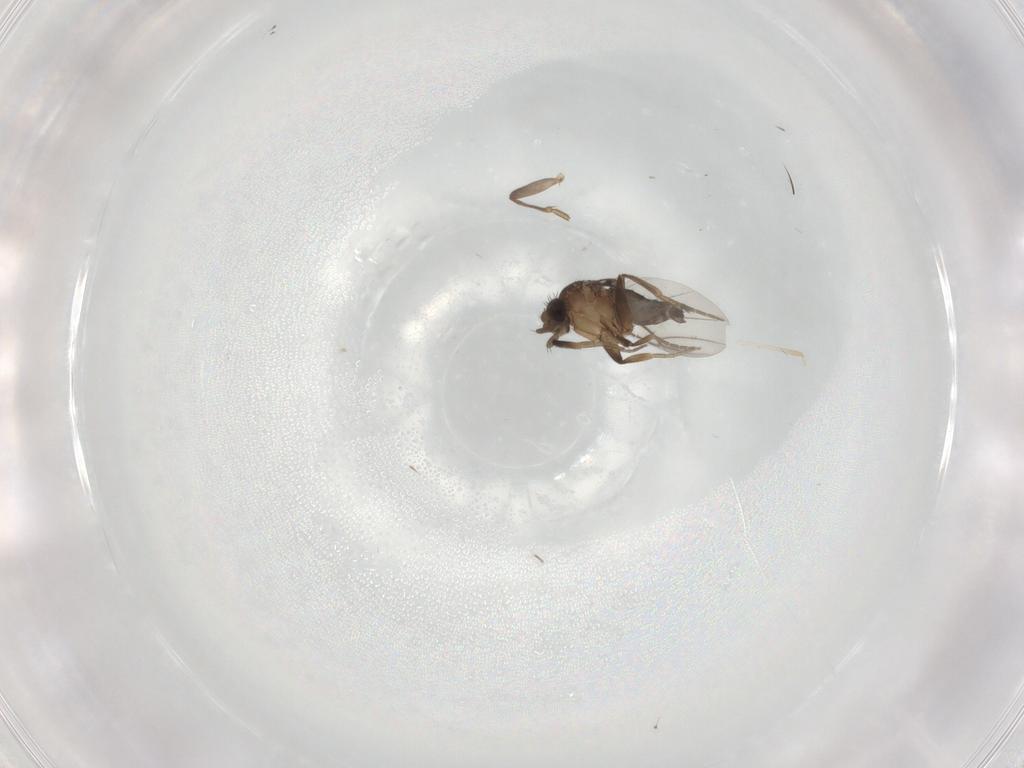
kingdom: Animalia
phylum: Arthropoda
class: Insecta
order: Diptera
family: Phoridae
